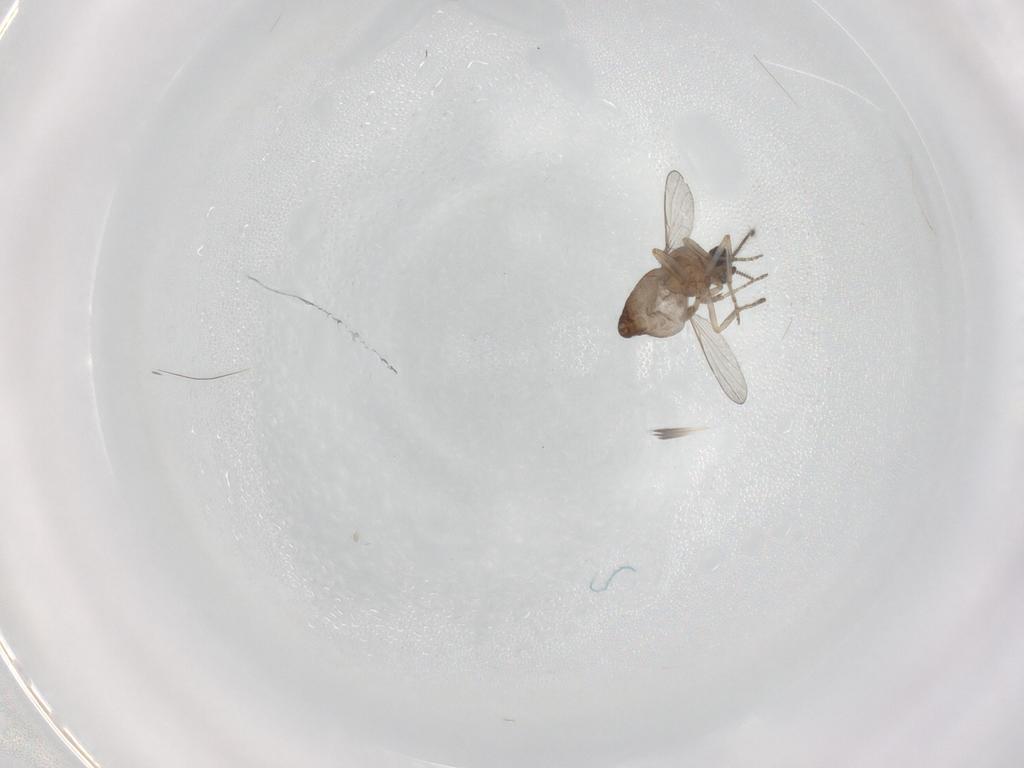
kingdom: Animalia
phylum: Arthropoda
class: Insecta
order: Diptera
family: Ceratopogonidae
